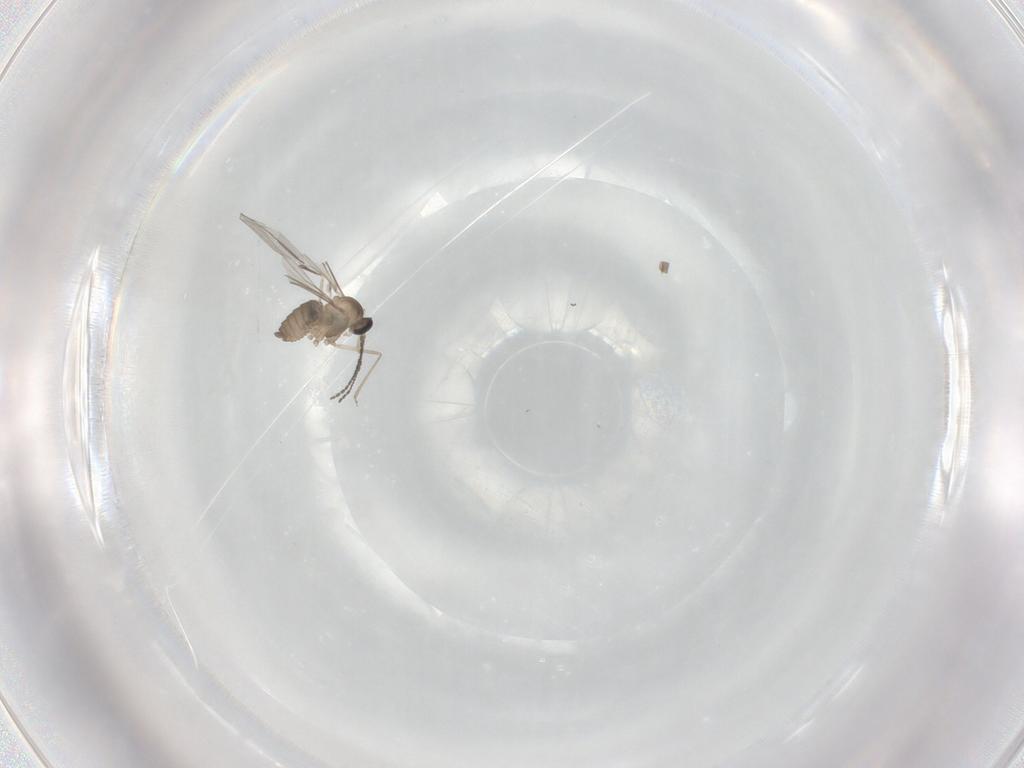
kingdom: Animalia
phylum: Arthropoda
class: Insecta
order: Diptera
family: Cecidomyiidae
